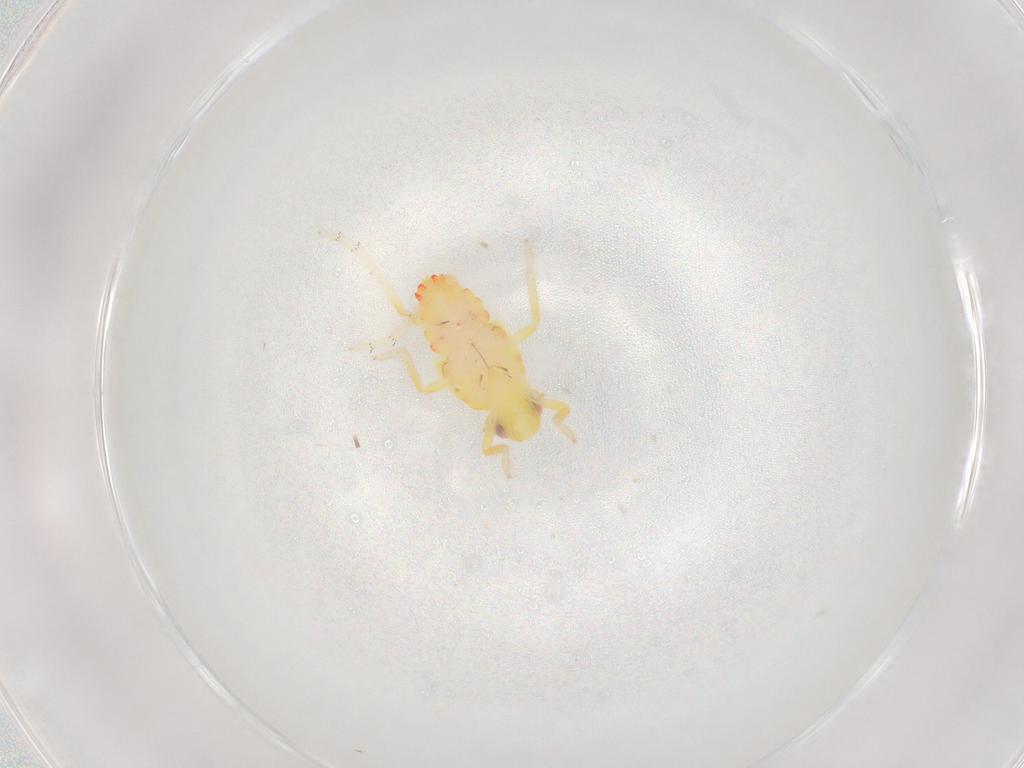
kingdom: Animalia
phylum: Arthropoda
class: Insecta
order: Hemiptera
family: Tropiduchidae
